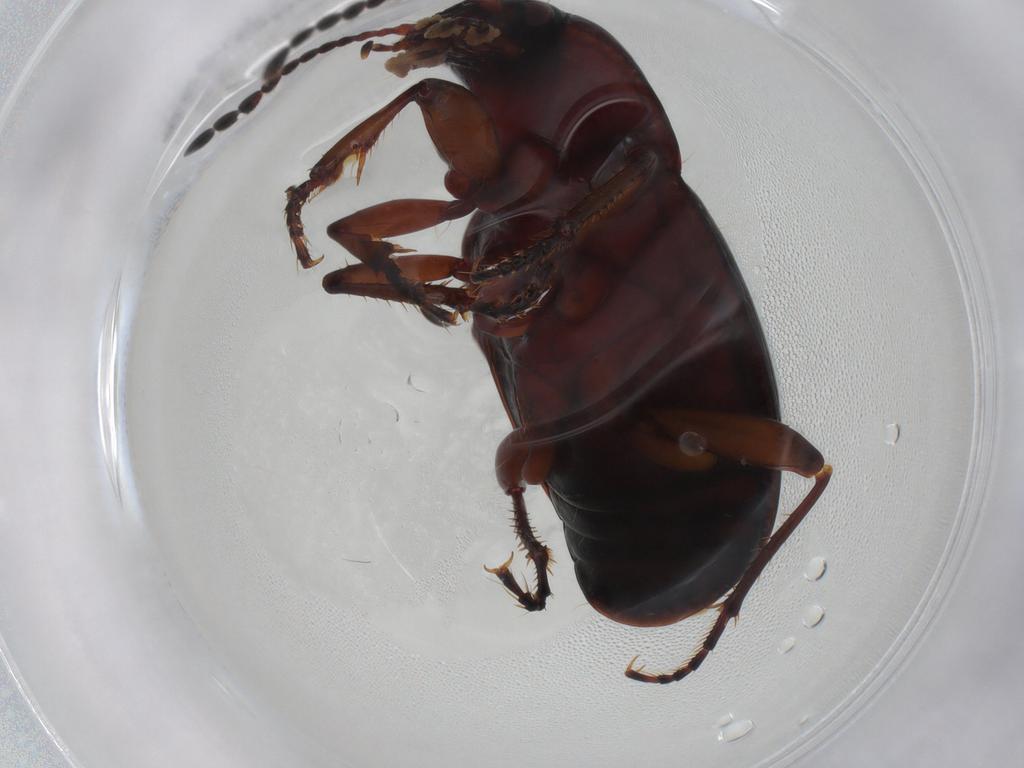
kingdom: Animalia
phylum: Arthropoda
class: Insecta
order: Coleoptera
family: Carabidae
